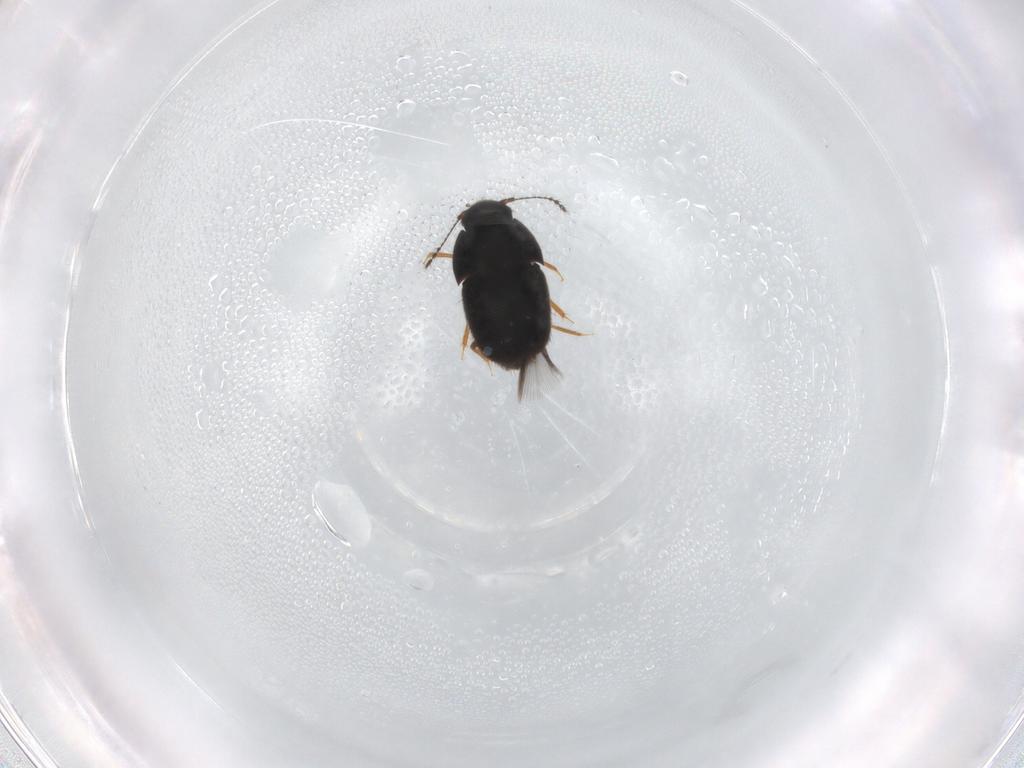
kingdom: Animalia
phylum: Arthropoda
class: Insecta
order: Coleoptera
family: Ptiliidae
